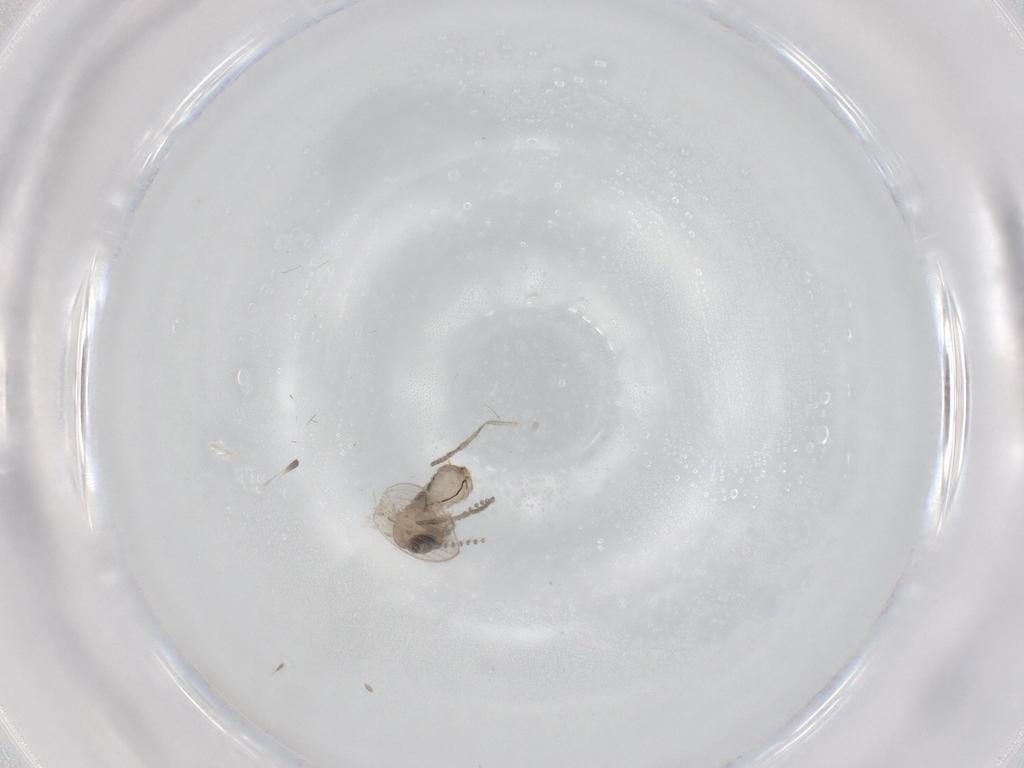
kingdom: Animalia
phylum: Arthropoda
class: Insecta
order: Diptera
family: Psychodidae
